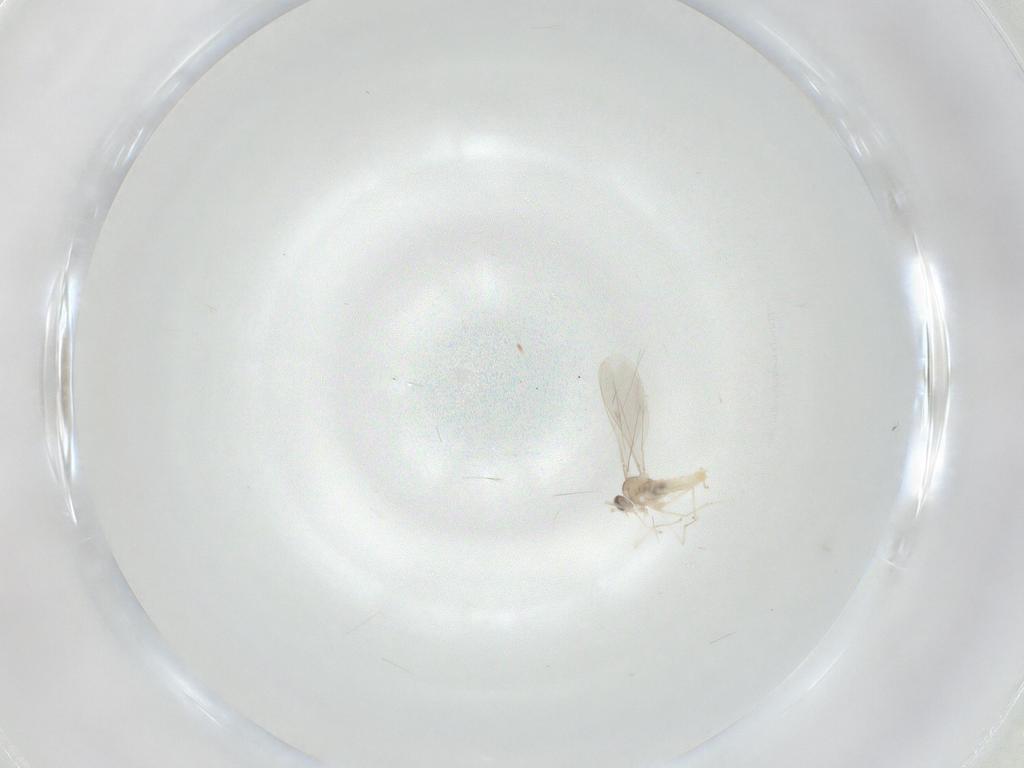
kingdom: Animalia
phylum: Arthropoda
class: Insecta
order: Diptera
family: Cecidomyiidae
